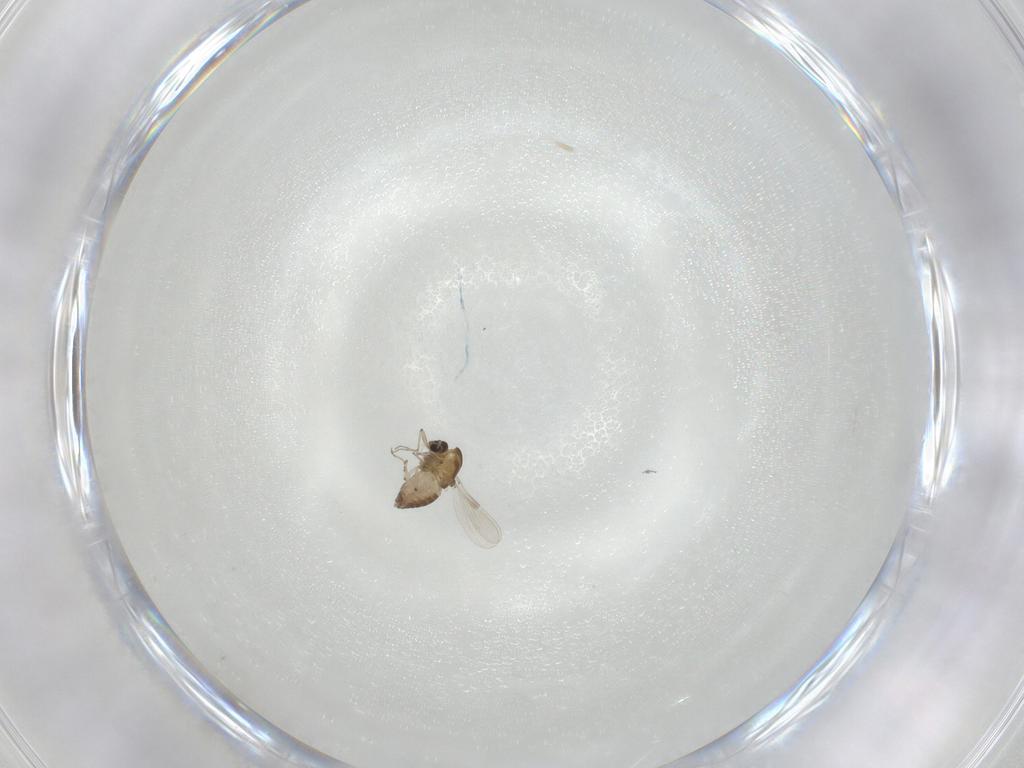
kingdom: Animalia
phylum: Arthropoda
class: Insecta
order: Diptera
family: Chironomidae
